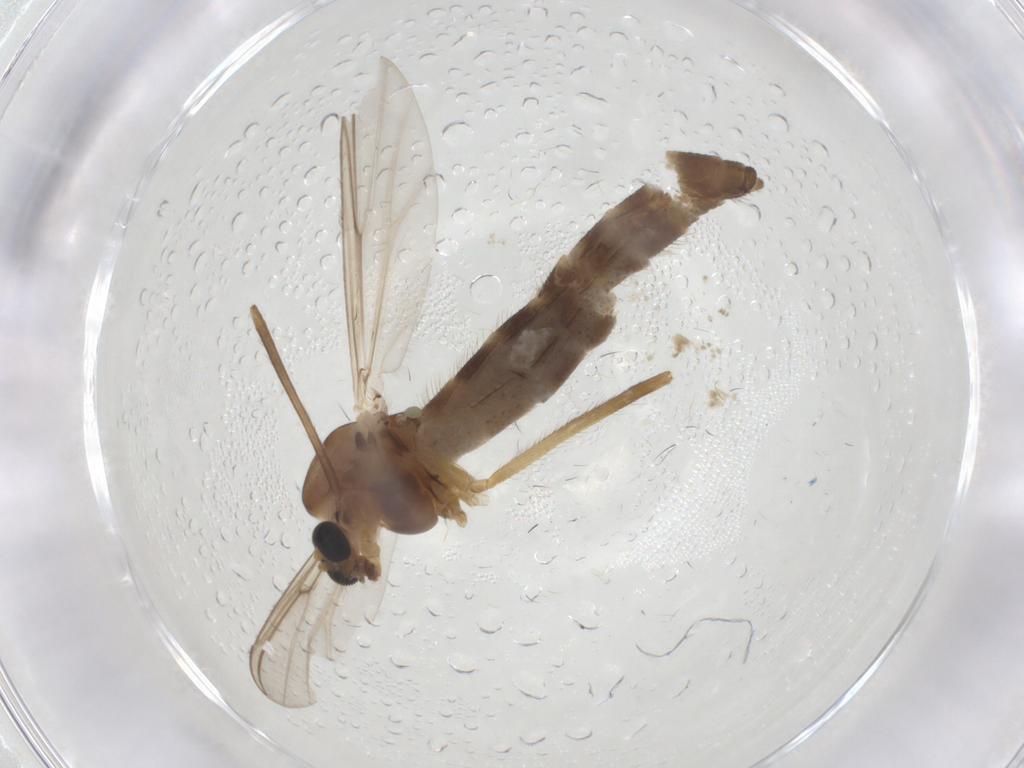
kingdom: Animalia
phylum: Arthropoda
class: Insecta
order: Diptera
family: Chironomidae
